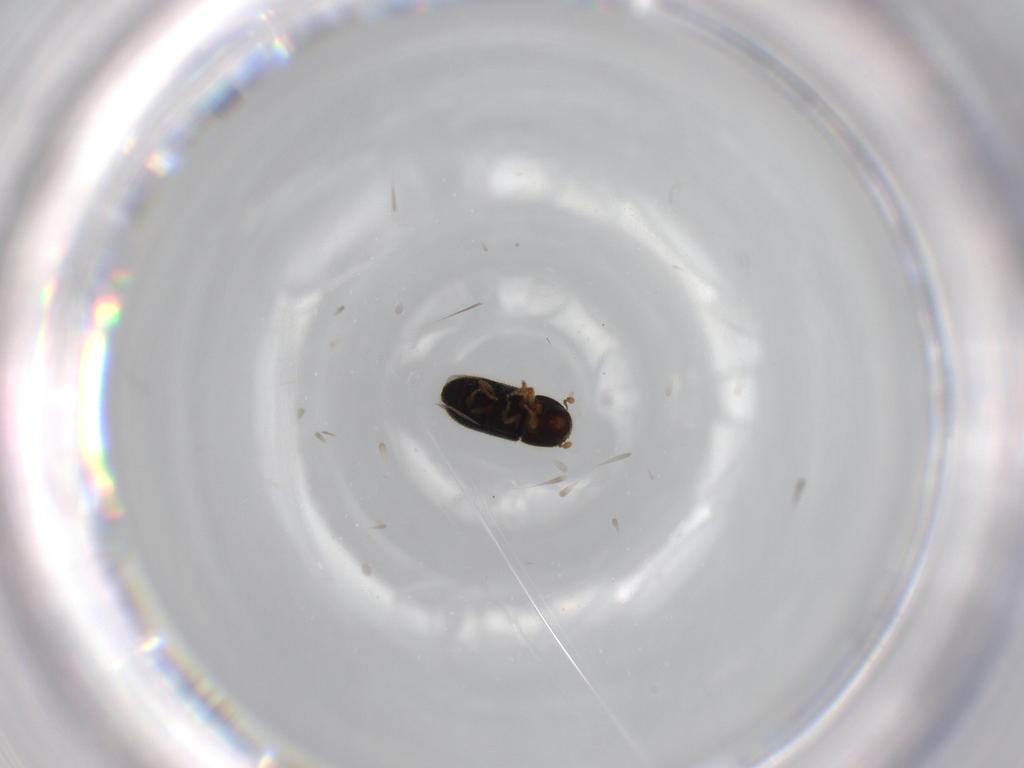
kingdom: Animalia
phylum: Arthropoda
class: Insecta
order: Coleoptera
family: Curculionidae
